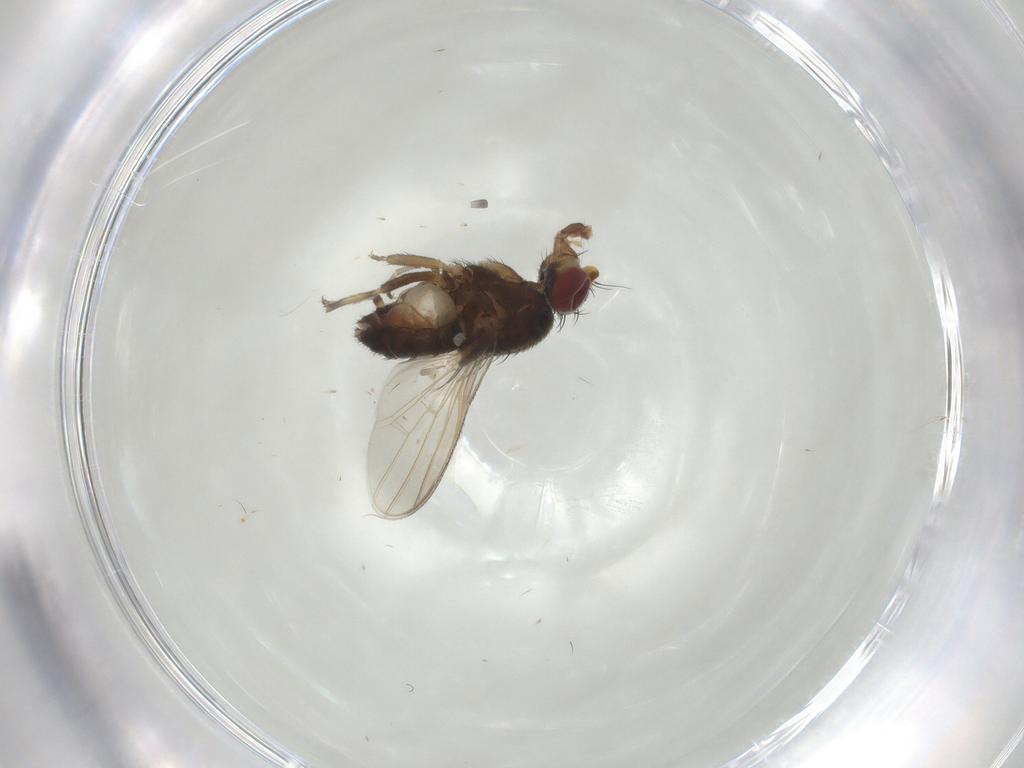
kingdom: Animalia
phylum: Arthropoda
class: Insecta
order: Diptera
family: Heleomyzidae
